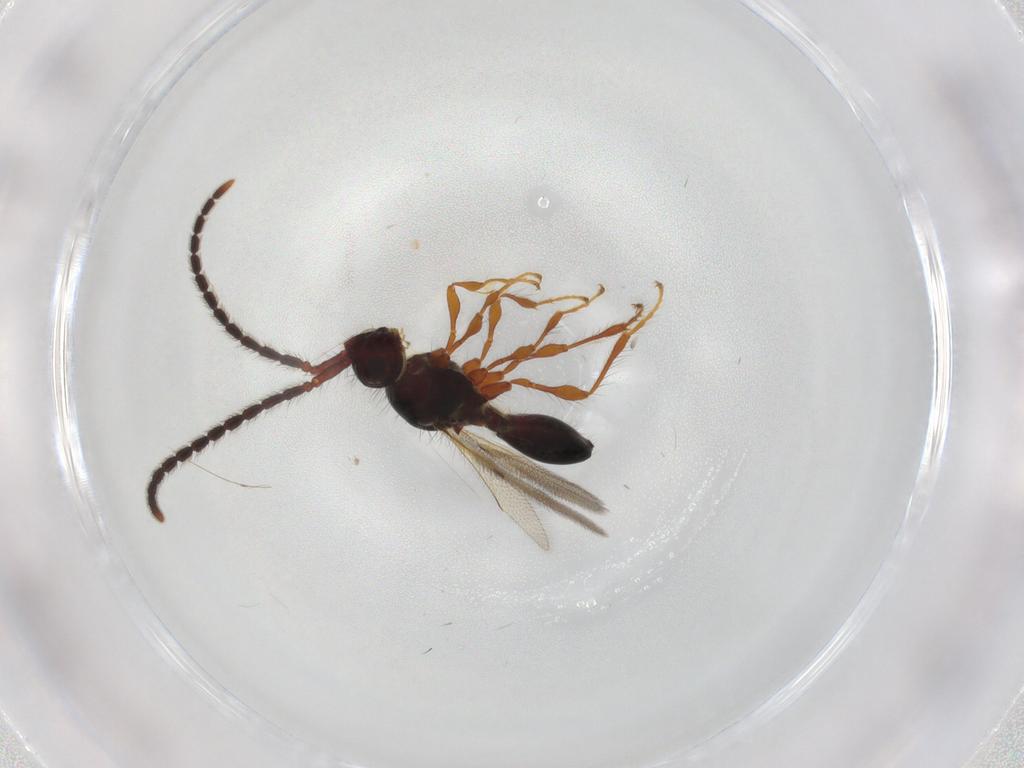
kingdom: Animalia
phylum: Arthropoda
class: Insecta
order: Hymenoptera
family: Diapriidae
